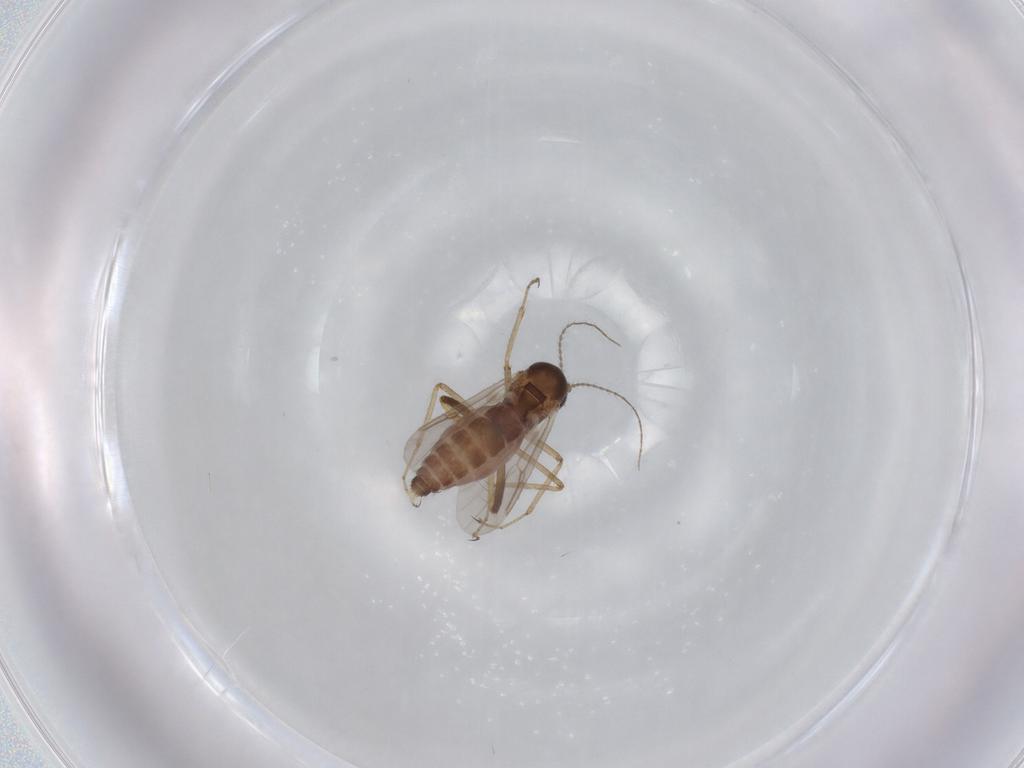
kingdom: Animalia
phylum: Arthropoda
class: Insecta
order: Diptera
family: Ceratopogonidae
